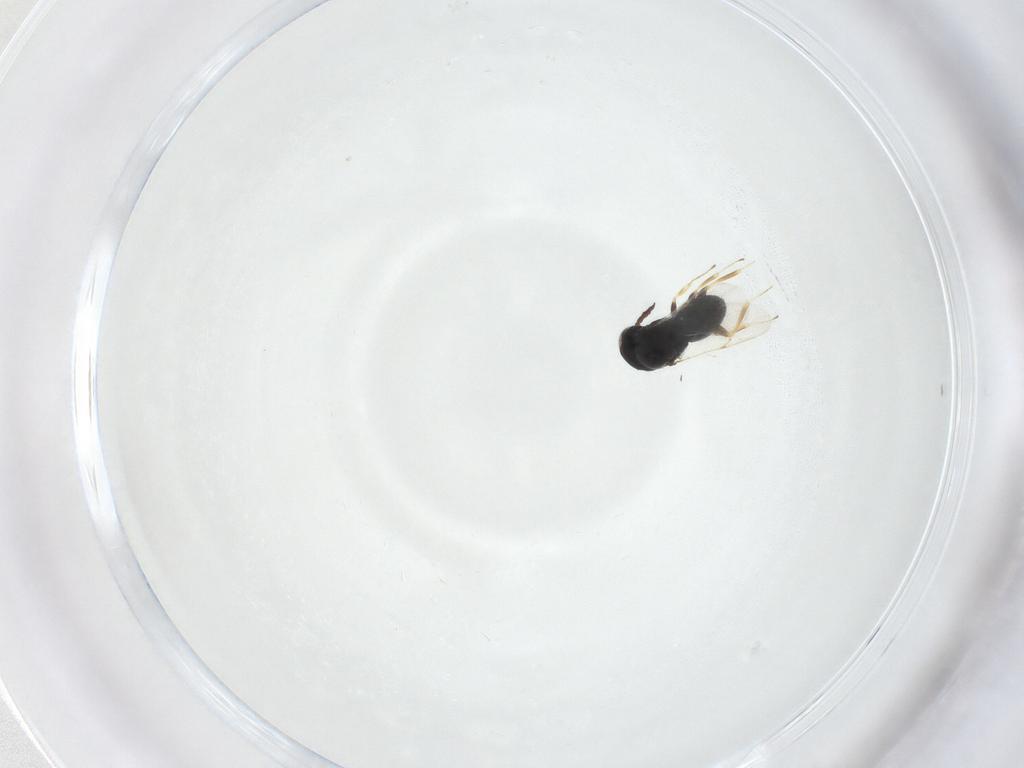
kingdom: Animalia
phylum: Arthropoda
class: Insecta
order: Hymenoptera
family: Scelionidae
